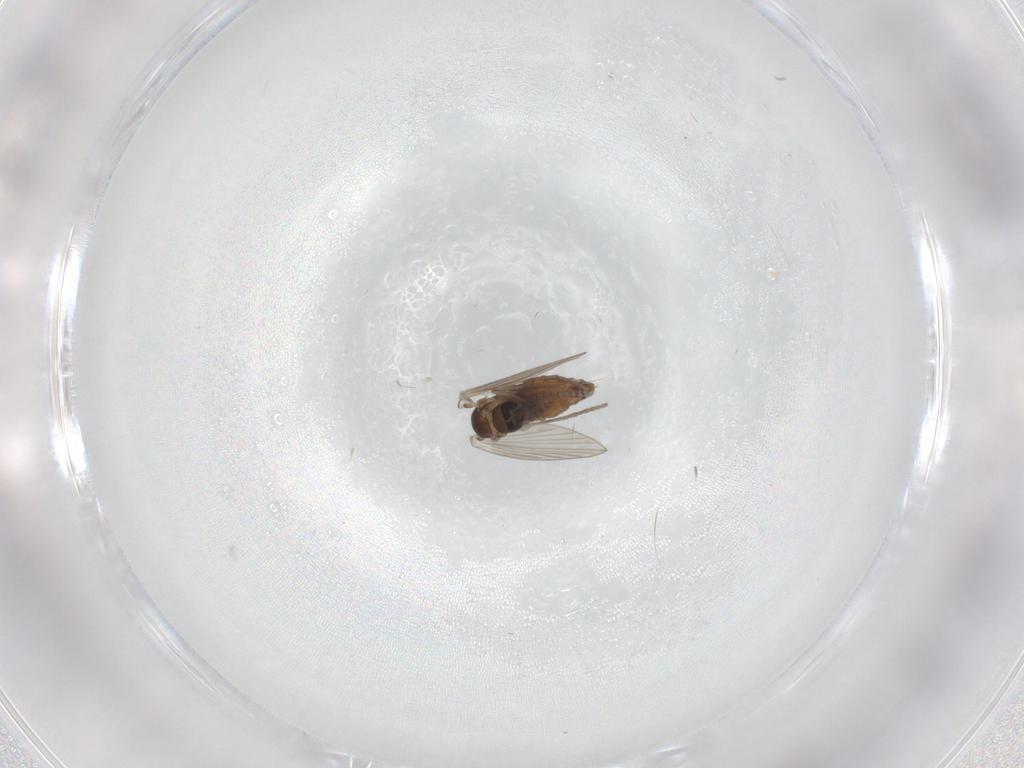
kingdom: Animalia
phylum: Arthropoda
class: Insecta
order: Diptera
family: Psychodidae
